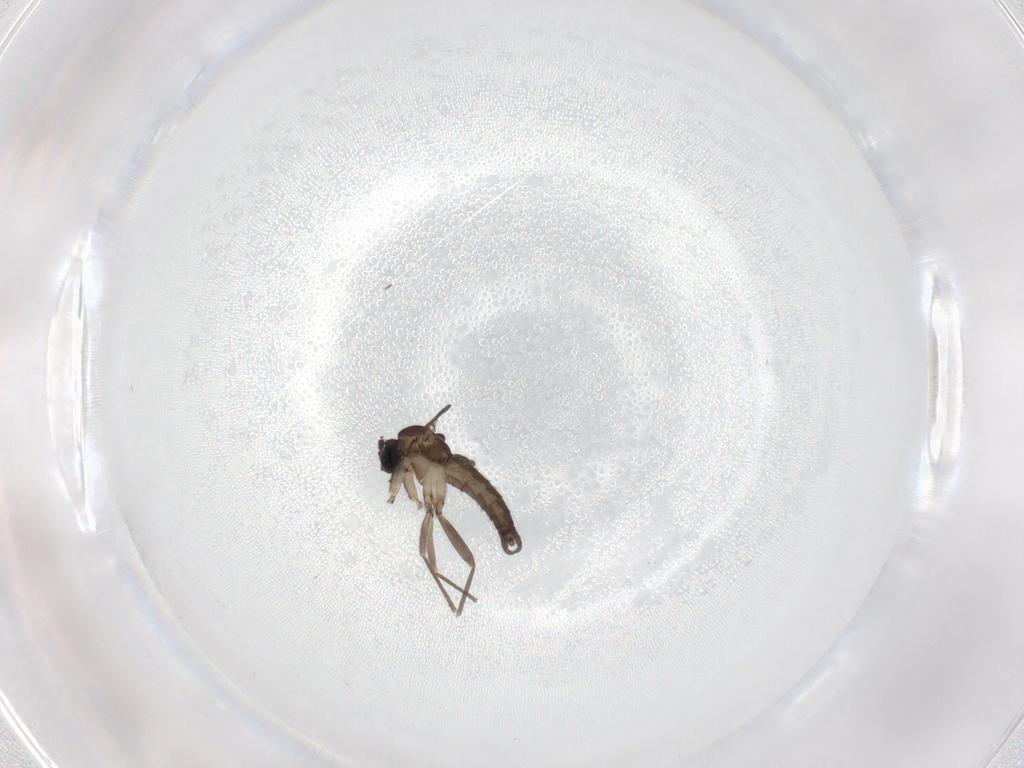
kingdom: Animalia
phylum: Arthropoda
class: Insecta
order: Diptera
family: Sciaridae
